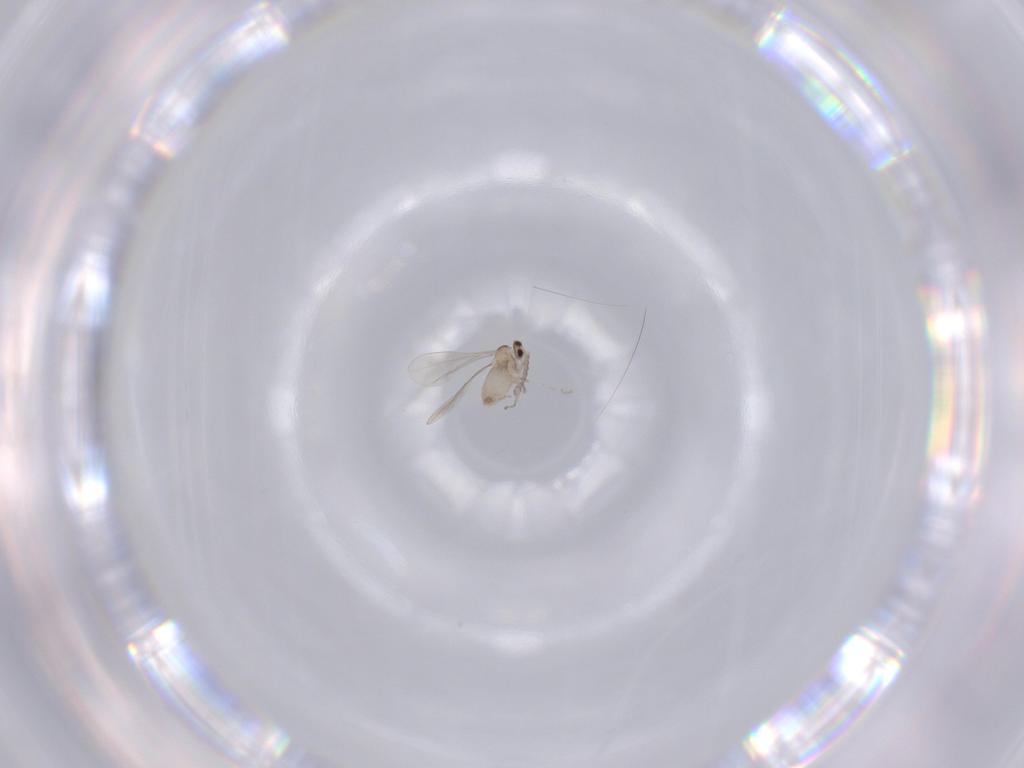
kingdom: Animalia
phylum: Arthropoda
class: Insecta
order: Diptera
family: Cecidomyiidae
